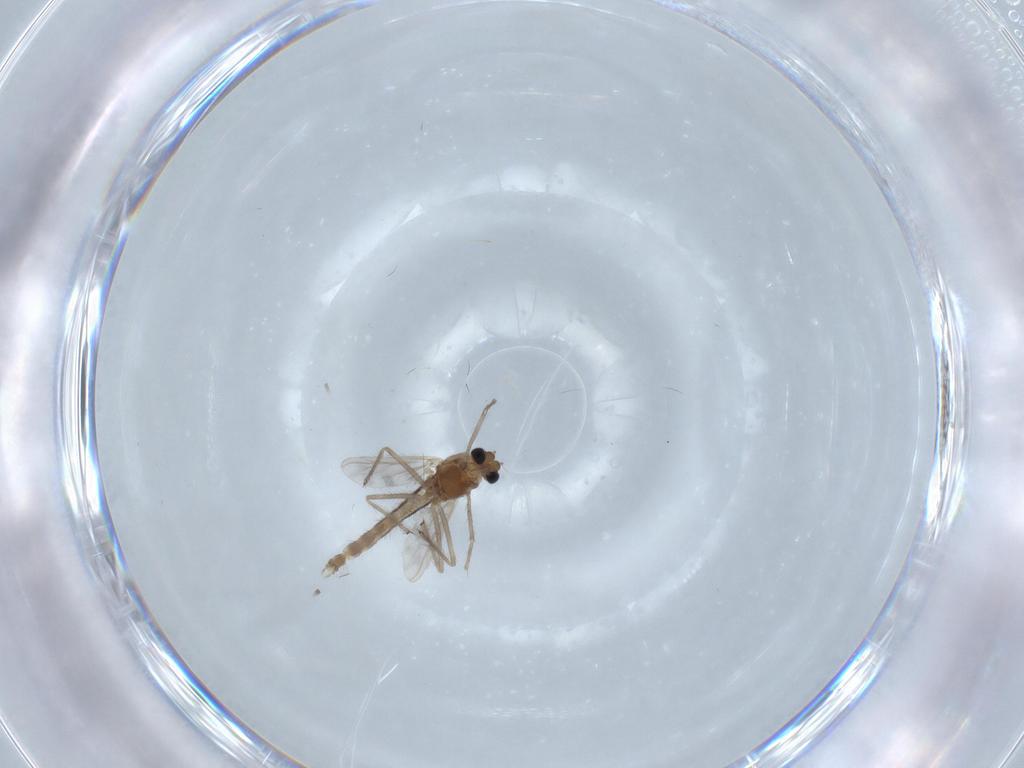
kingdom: Animalia
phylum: Arthropoda
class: Insecta
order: Diptera
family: Chironomidae
